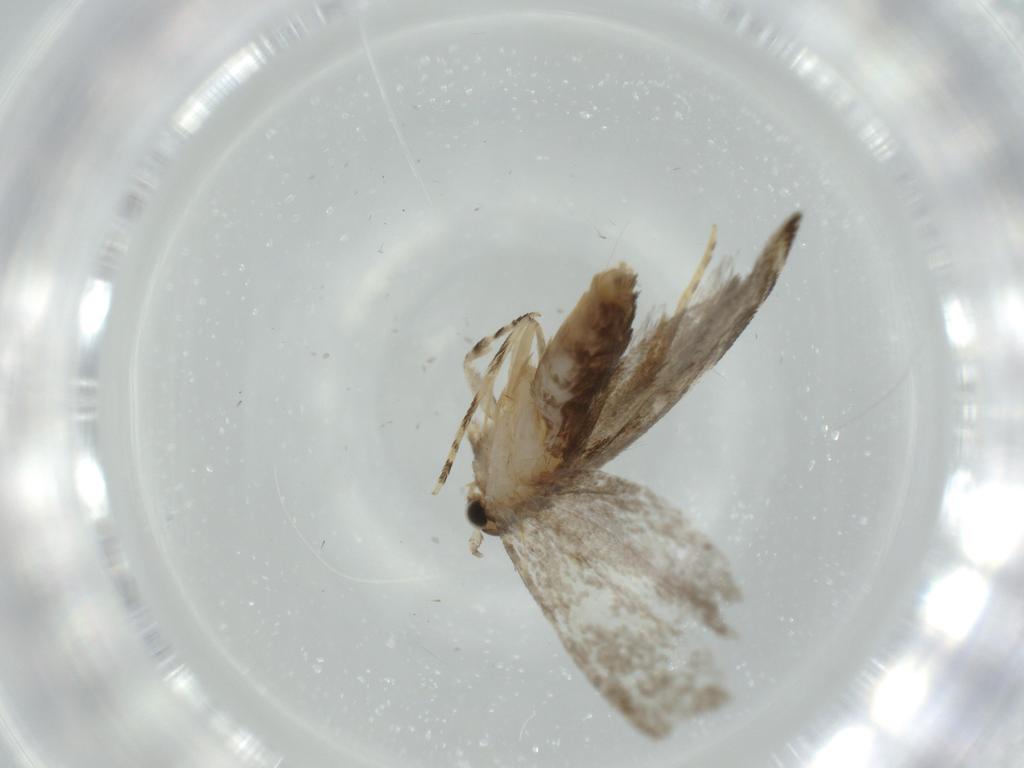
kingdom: Animalia
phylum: Arthropoda
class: Insecta
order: Lepidoptera
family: Tineidae
